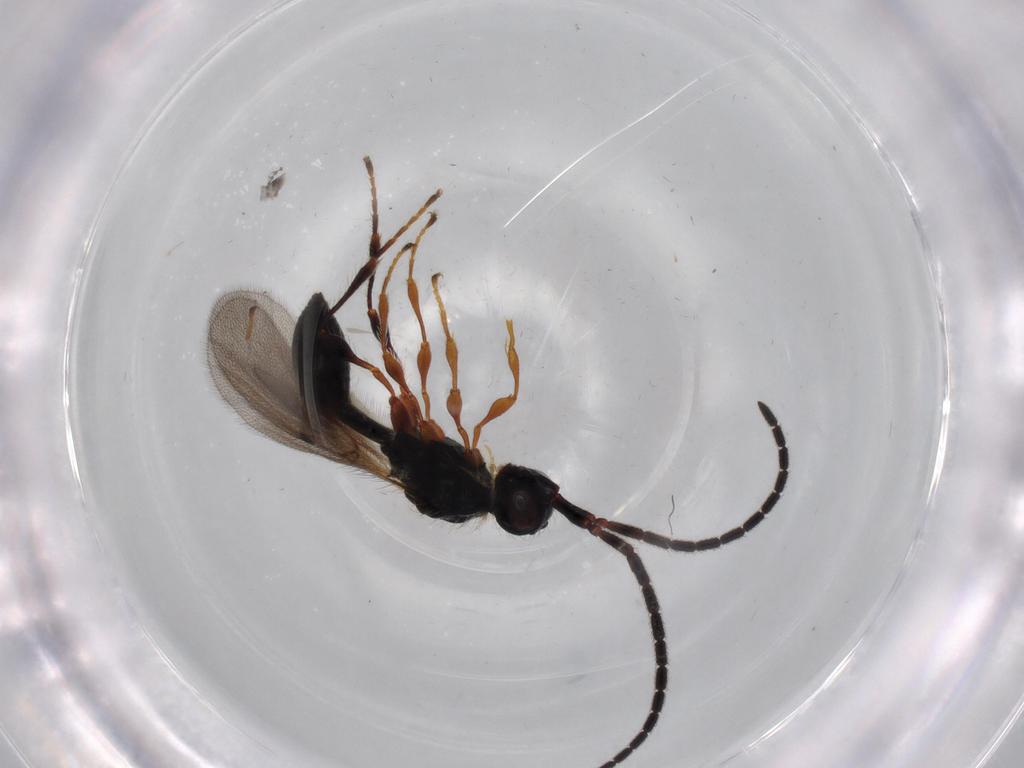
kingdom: Animalia
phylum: Arthropoda
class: Insecta
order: Hymenoptera
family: Diapriidae
